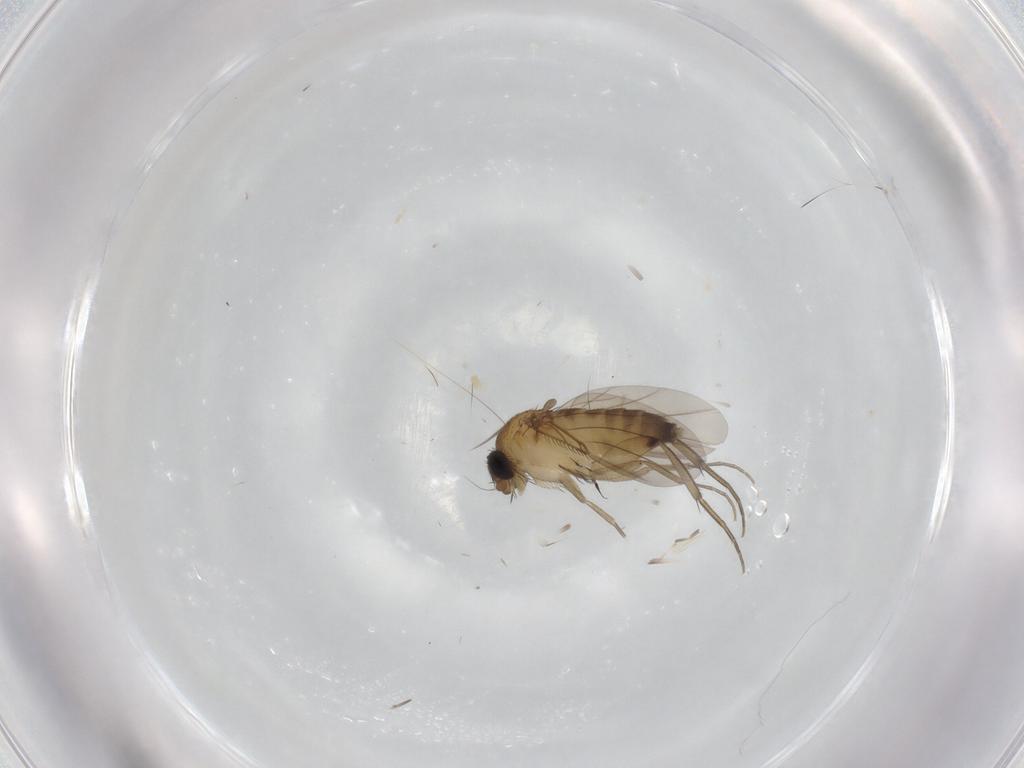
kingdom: Animalia
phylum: Arthropoda
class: Insecta
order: Diptera
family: Phoridae
